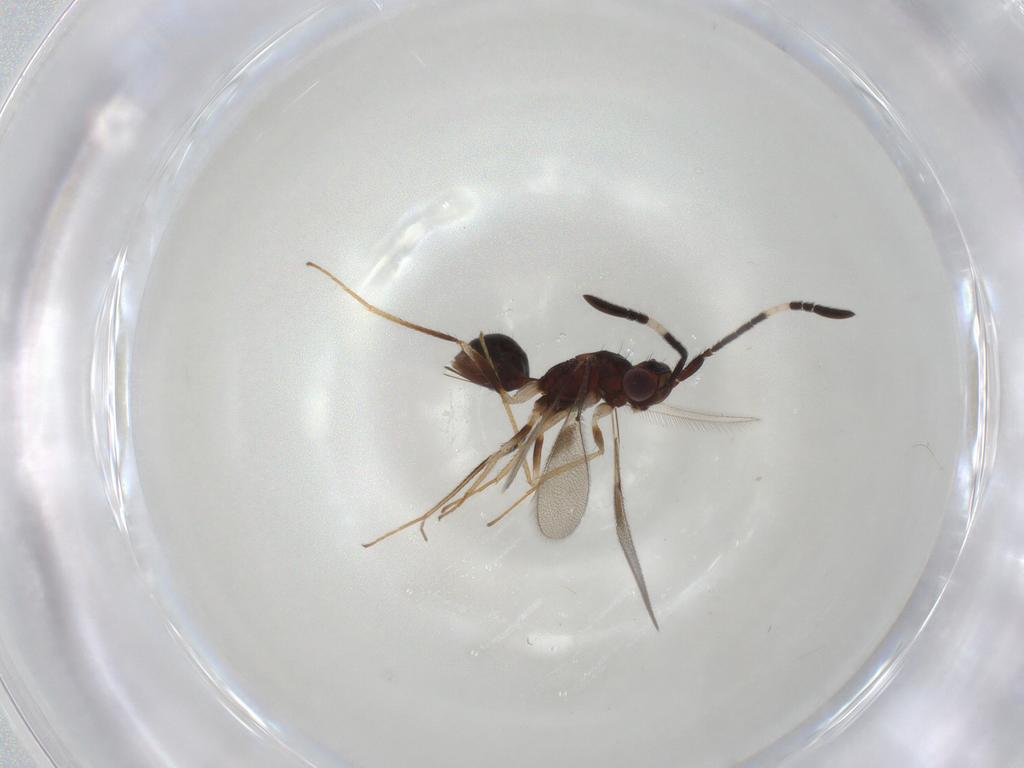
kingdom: Animalia
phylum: Arthropoda
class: Insecta
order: Hymenoptera
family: Mymaridae
